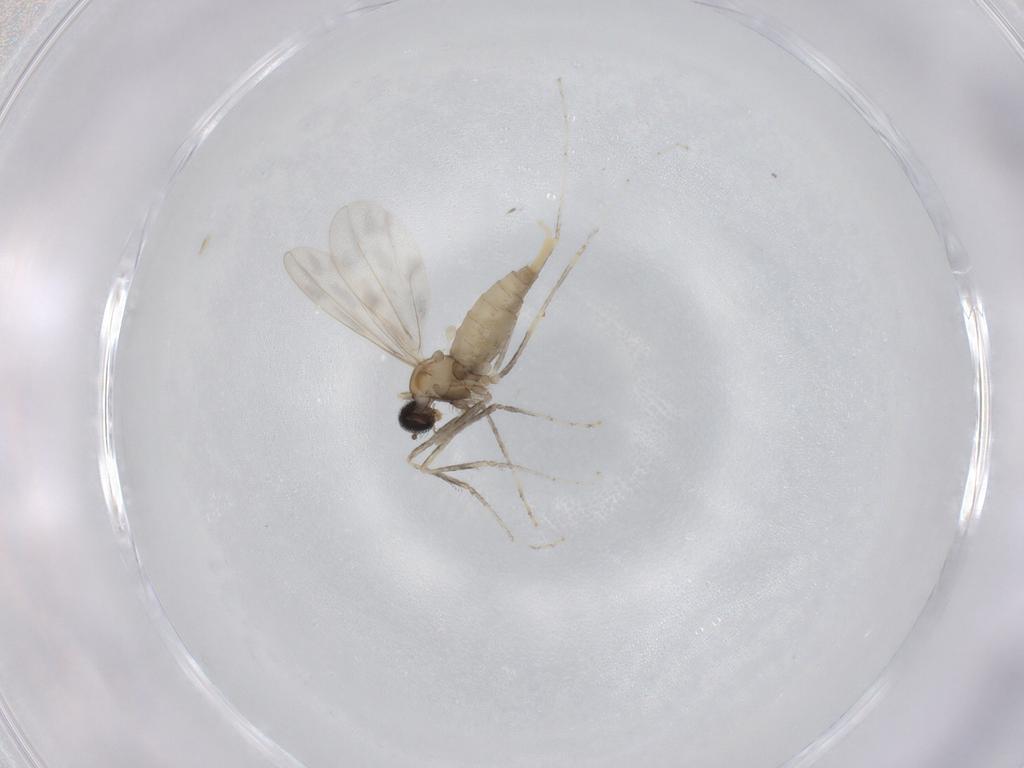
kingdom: Animalia
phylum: Arthropoda
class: Insecta
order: Diptera
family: Cecidomyiidae
